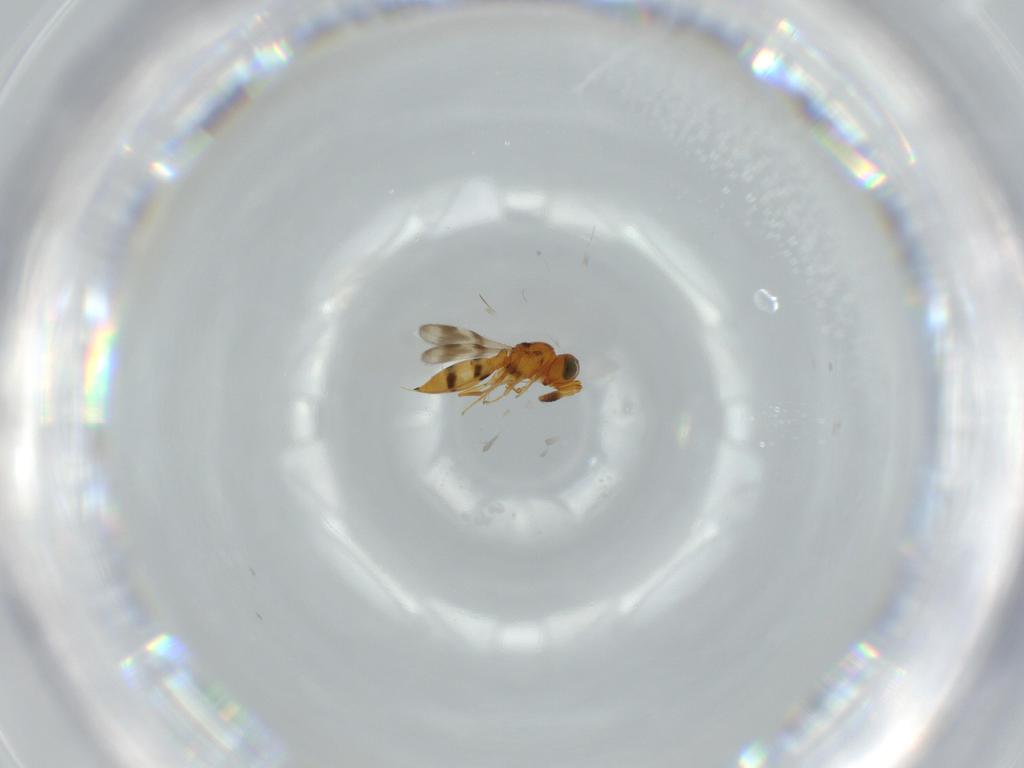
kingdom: Animalia
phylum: Arthropoda
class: Insecta
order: Hymenoptera
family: Scelionidae
